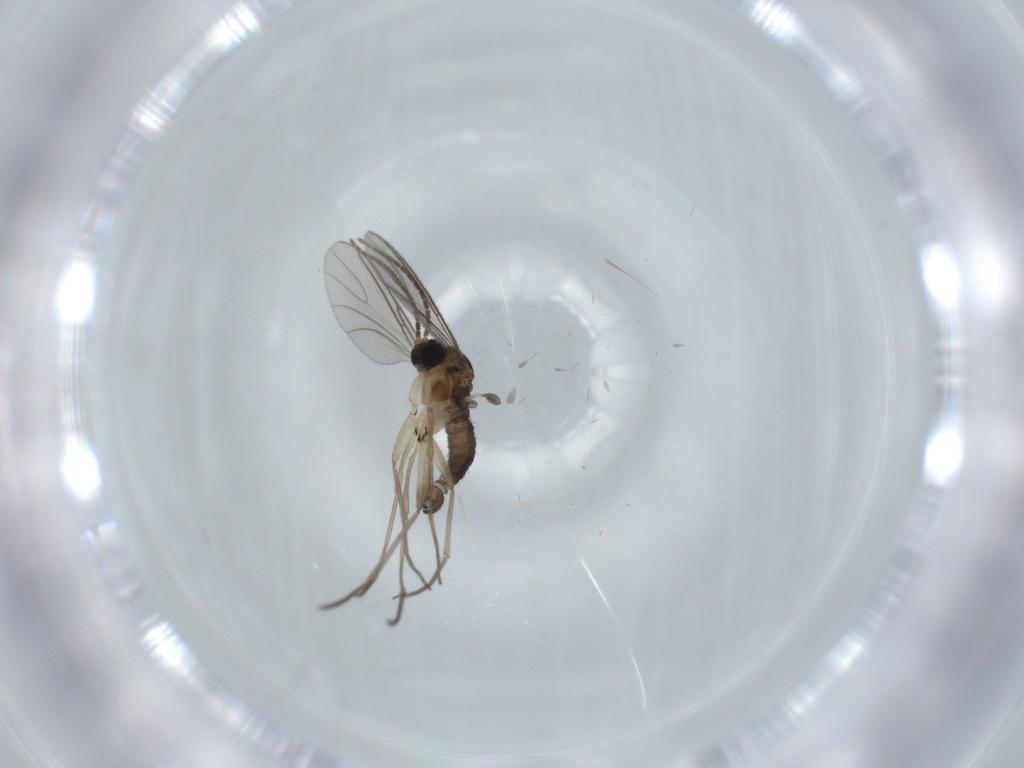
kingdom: Animalia
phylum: Arthropoda
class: Insecta
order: Diptera
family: Sciaridae
